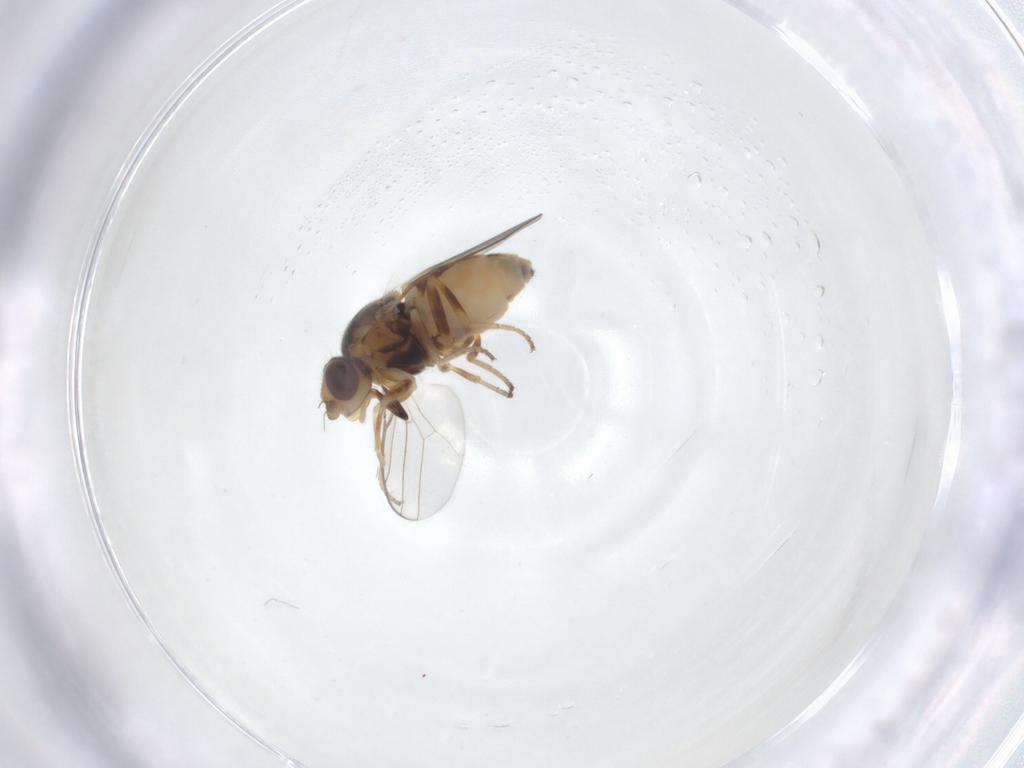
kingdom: Animalia
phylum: Arthropoda
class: Insecta
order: Diptera
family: Chloropidae
